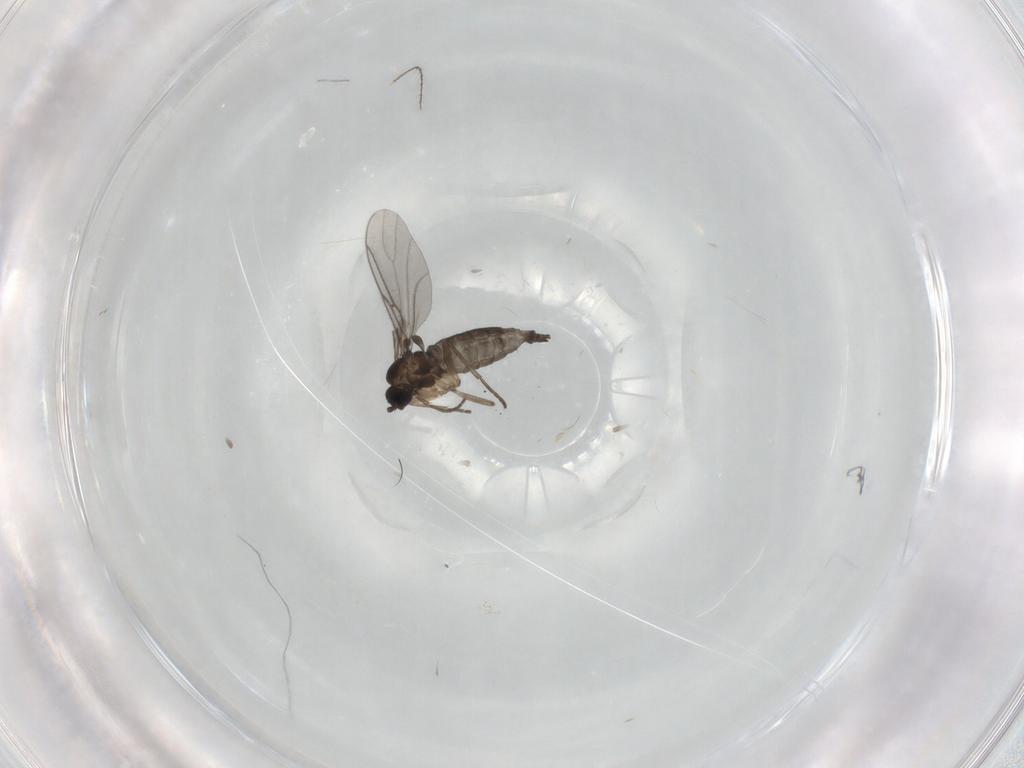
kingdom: Animalia
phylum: Arthropoda
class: Insecta
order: Diptera
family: Sciaridae
